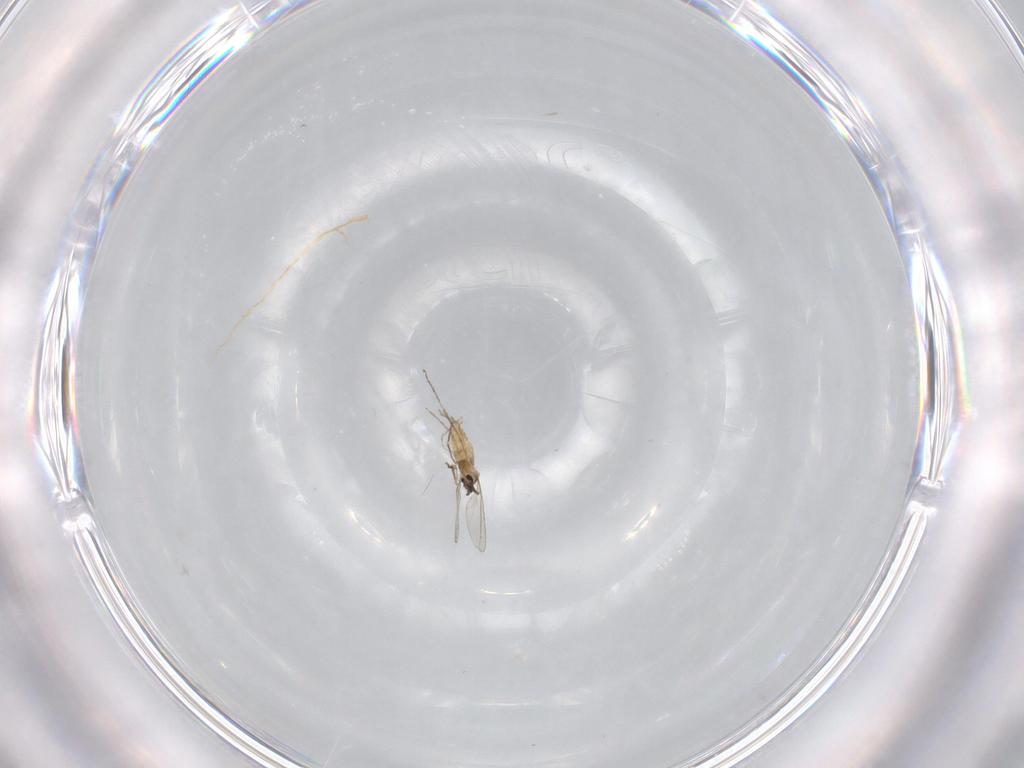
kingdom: Animalia
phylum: Arthropoda
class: Insecta
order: Diptera
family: Cecidomyiidae
